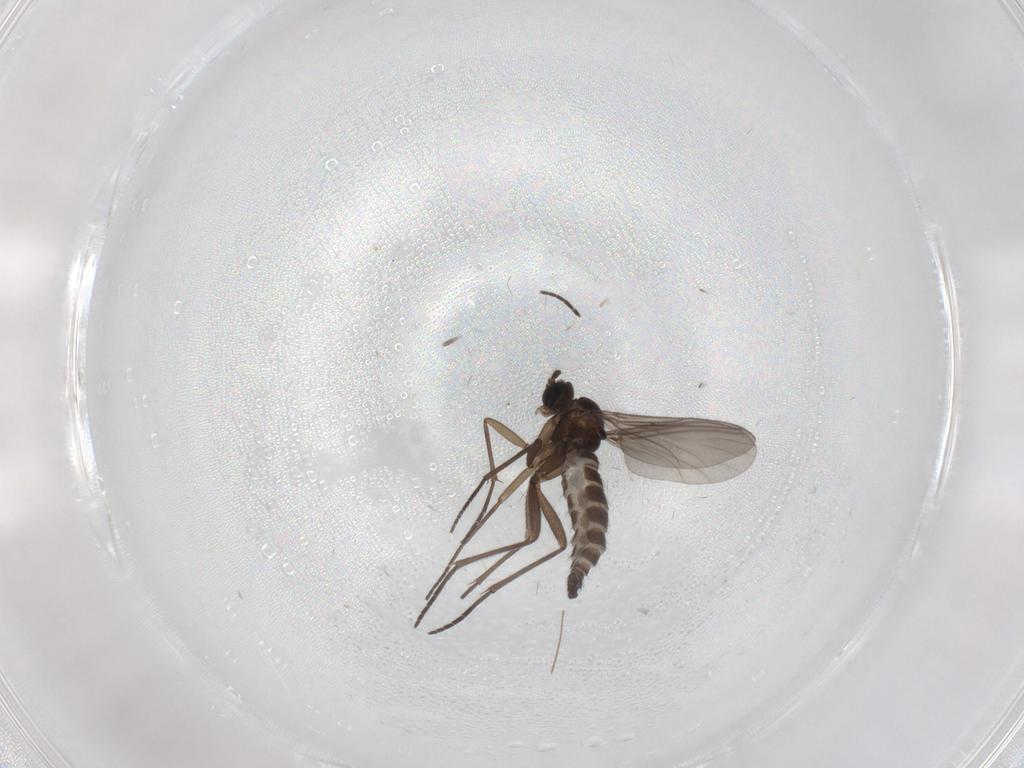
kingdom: Animalia
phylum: Arthropoda
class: Insecta
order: Diptera
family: Sciaridae
